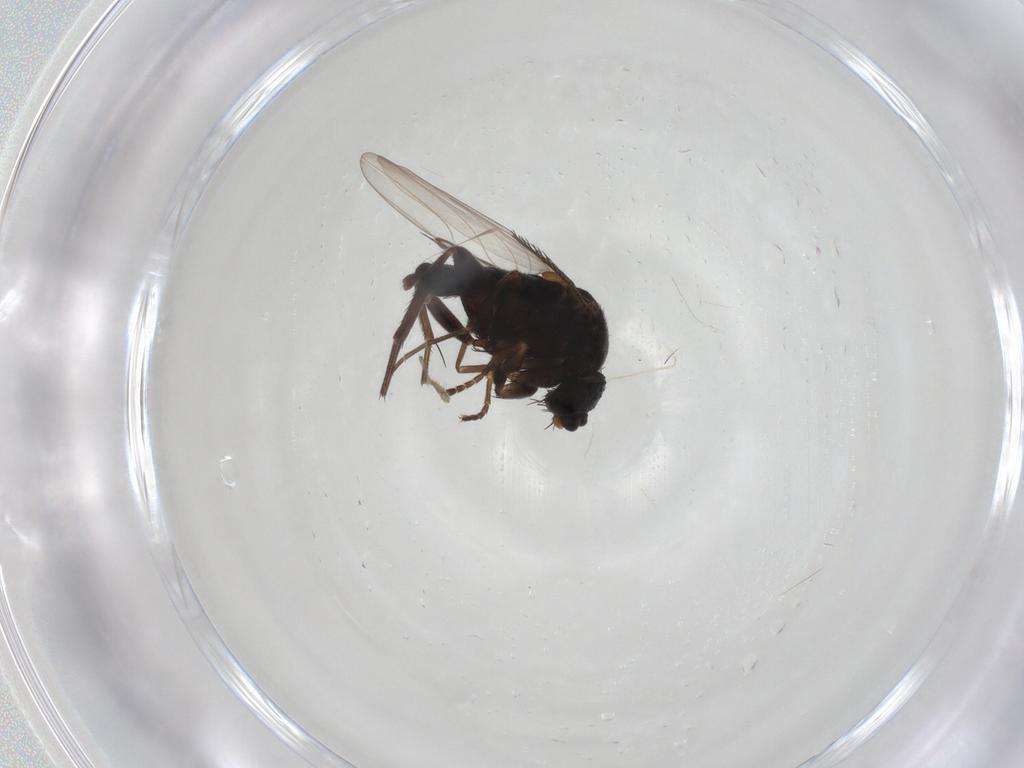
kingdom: Animalia
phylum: Arthropoda
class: Insecta
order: Diptera
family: Phoridae
